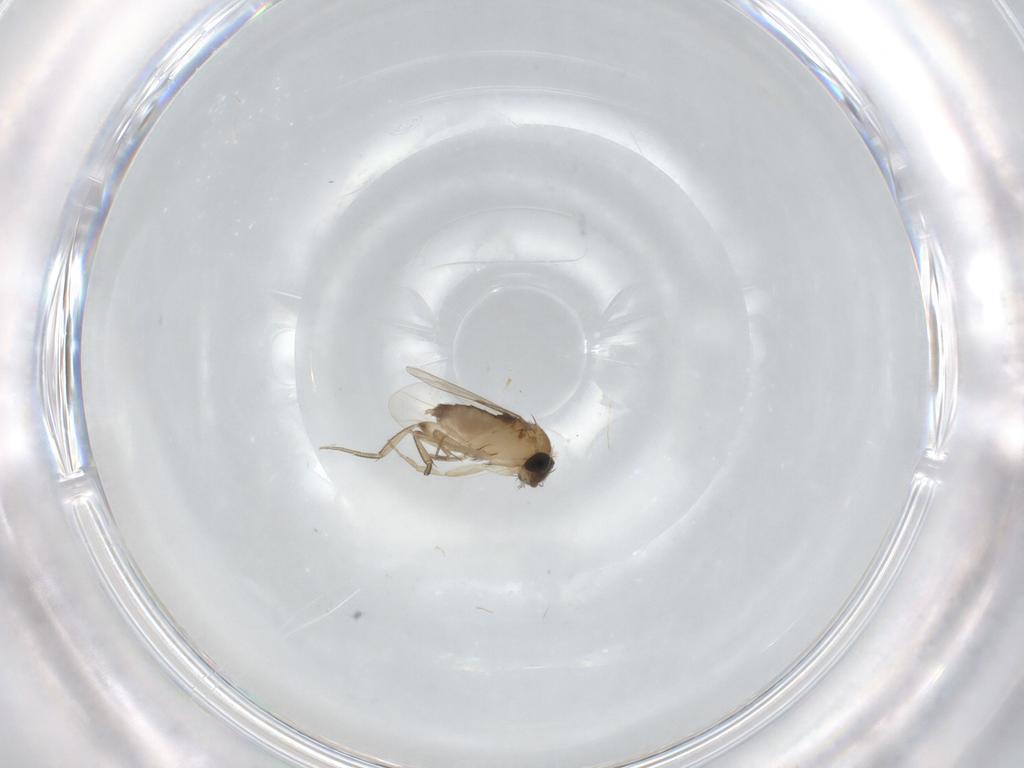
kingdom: Animalia
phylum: Arthropoda
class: Insecta
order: Diptera
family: Phoridae
